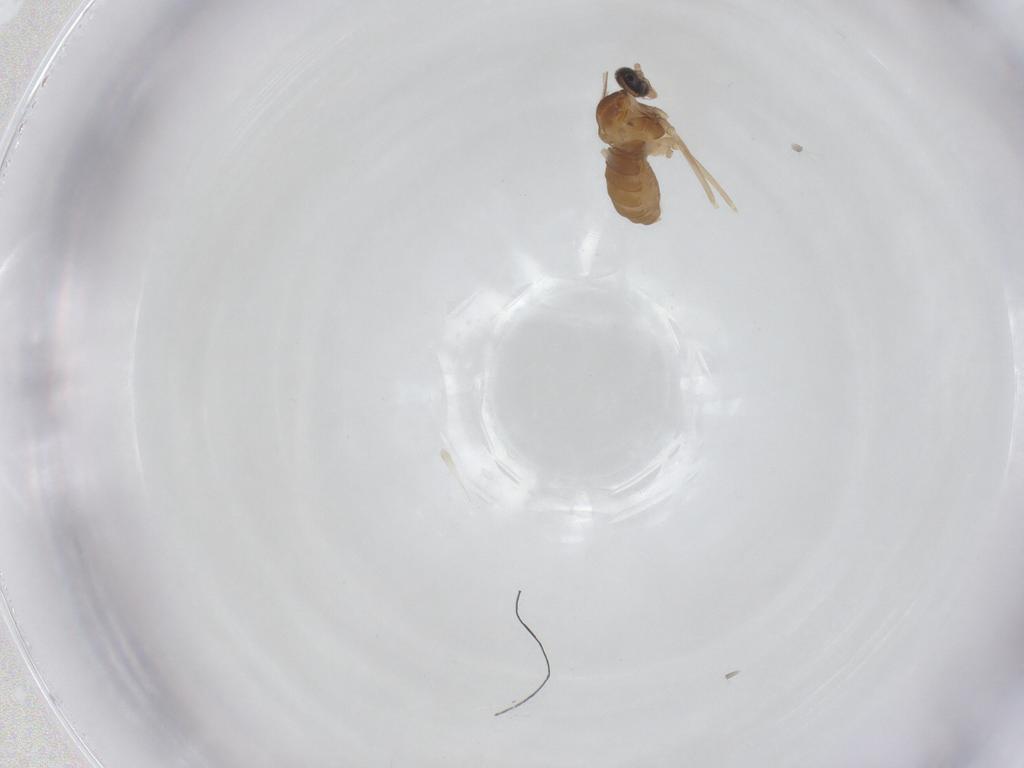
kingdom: Animalia
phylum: Arthropoda
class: Insecta
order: Diptera
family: Cecidomyiidae
